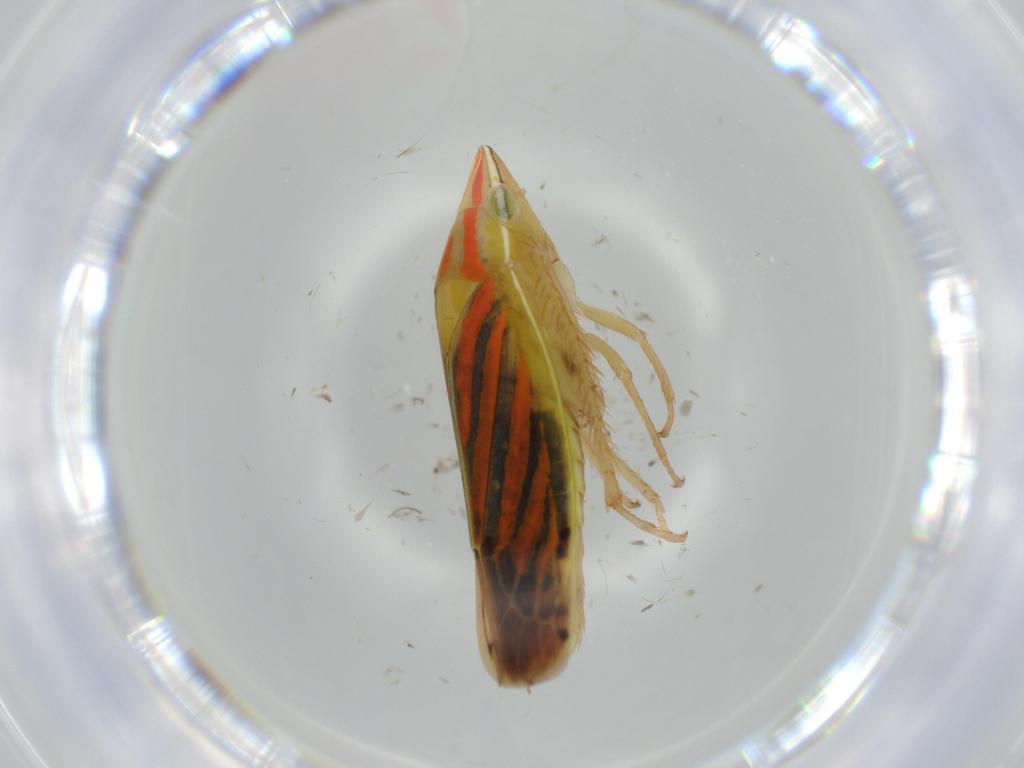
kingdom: Animalia
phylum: Arthropoda
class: Insecta
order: Hemiptera
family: Cicadellidae
